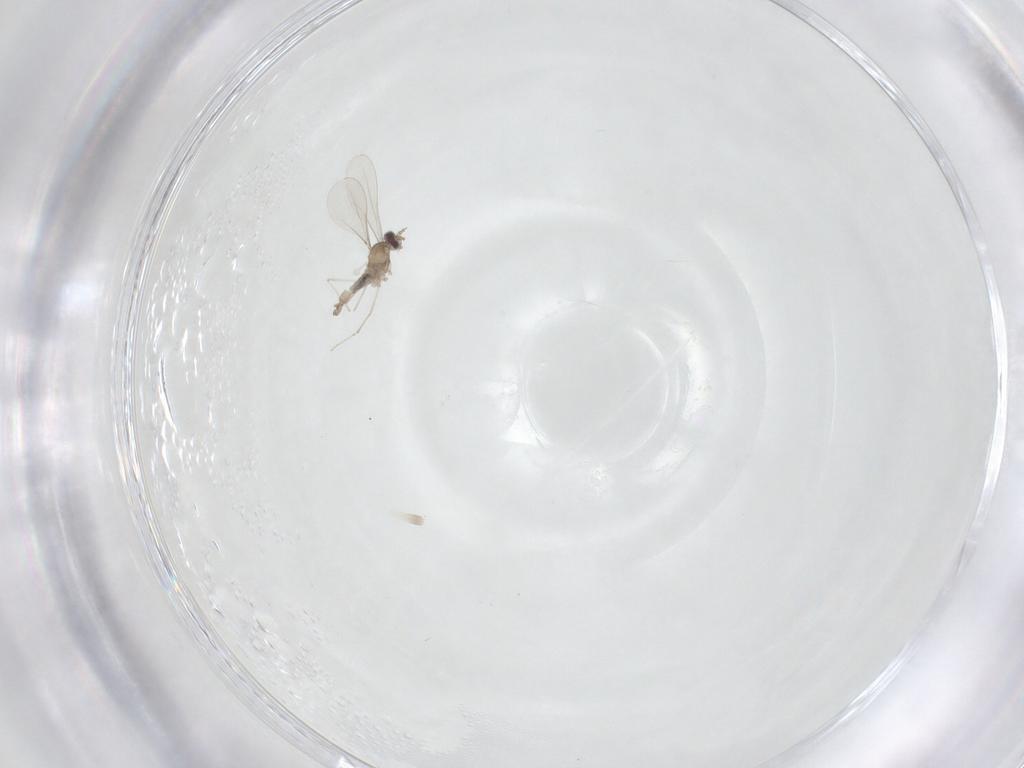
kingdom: Animalia
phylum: Arthropoda
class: Insecta
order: Diptera
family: Cecidomyiidae
